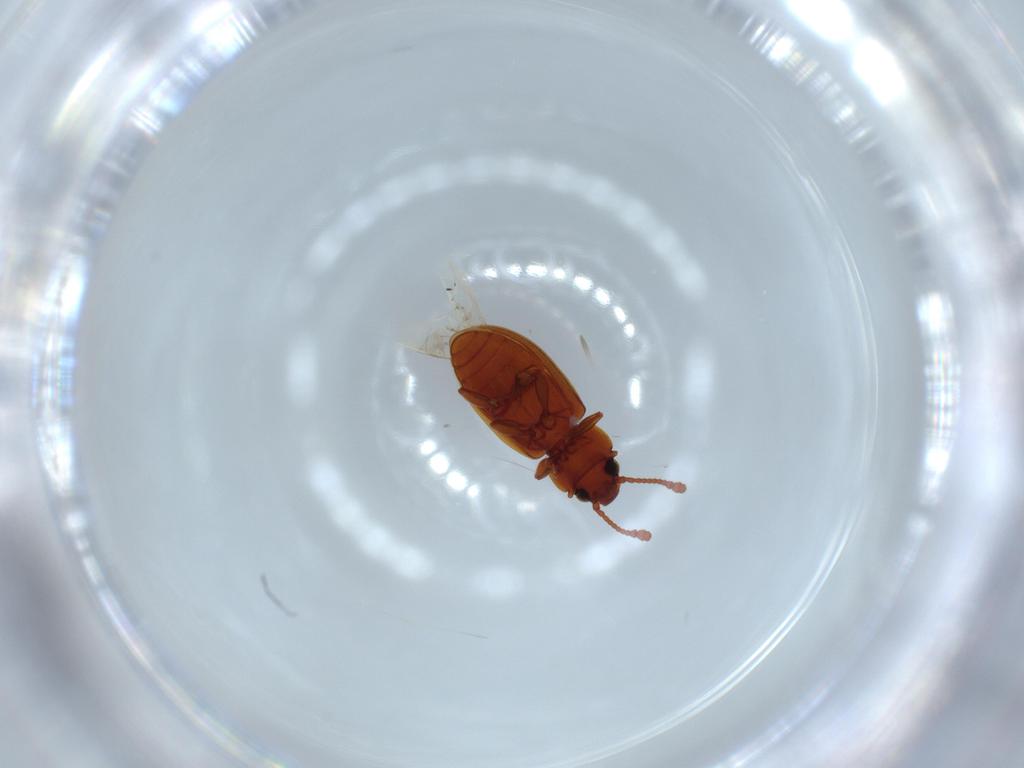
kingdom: Animalia
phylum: Arthropoda
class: Insecta
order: Coleoptera
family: Silvanidae
